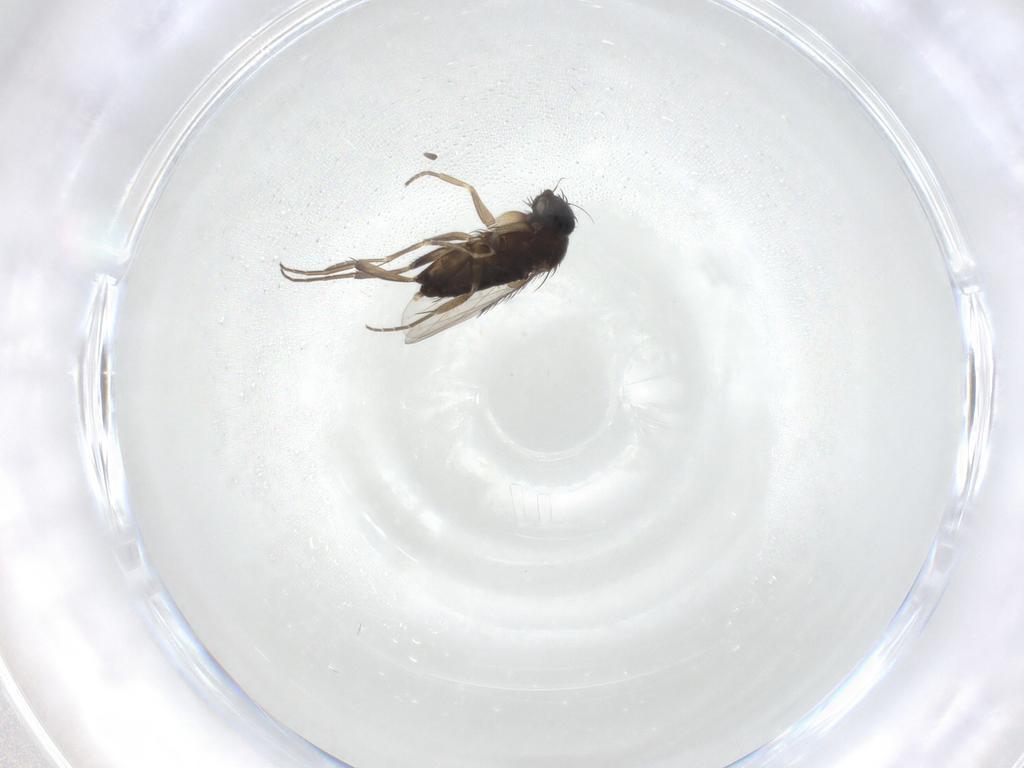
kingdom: Animalia
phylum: Arthropoda
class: Insecta
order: Diptera
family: Phoridae
